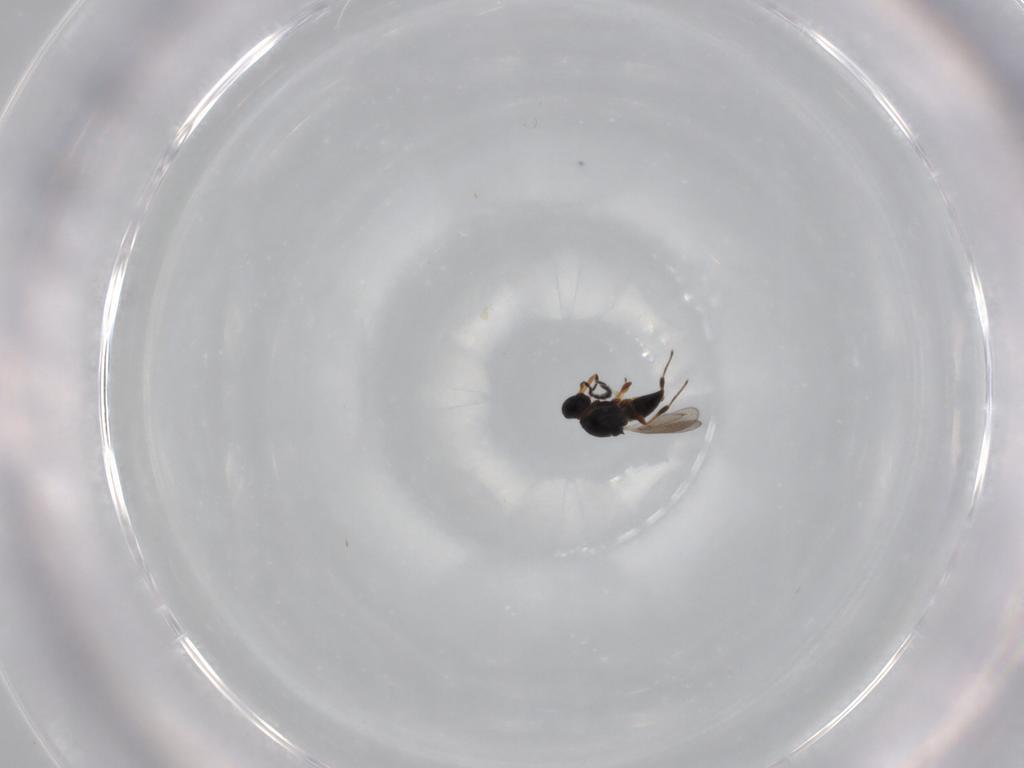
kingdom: Animalia
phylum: Arthropoda
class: Insecta
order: Hymenoptera
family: Platygastridae
